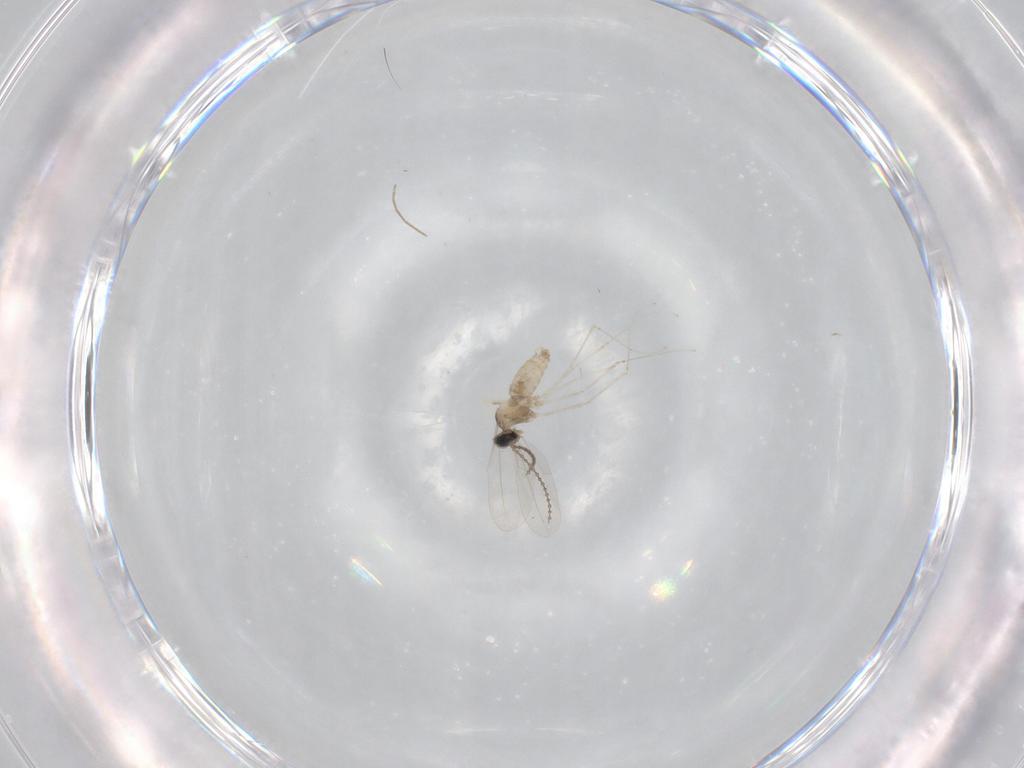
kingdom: Animalia
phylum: Arthropoda
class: Insecta
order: Diptera
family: Chironomidae
